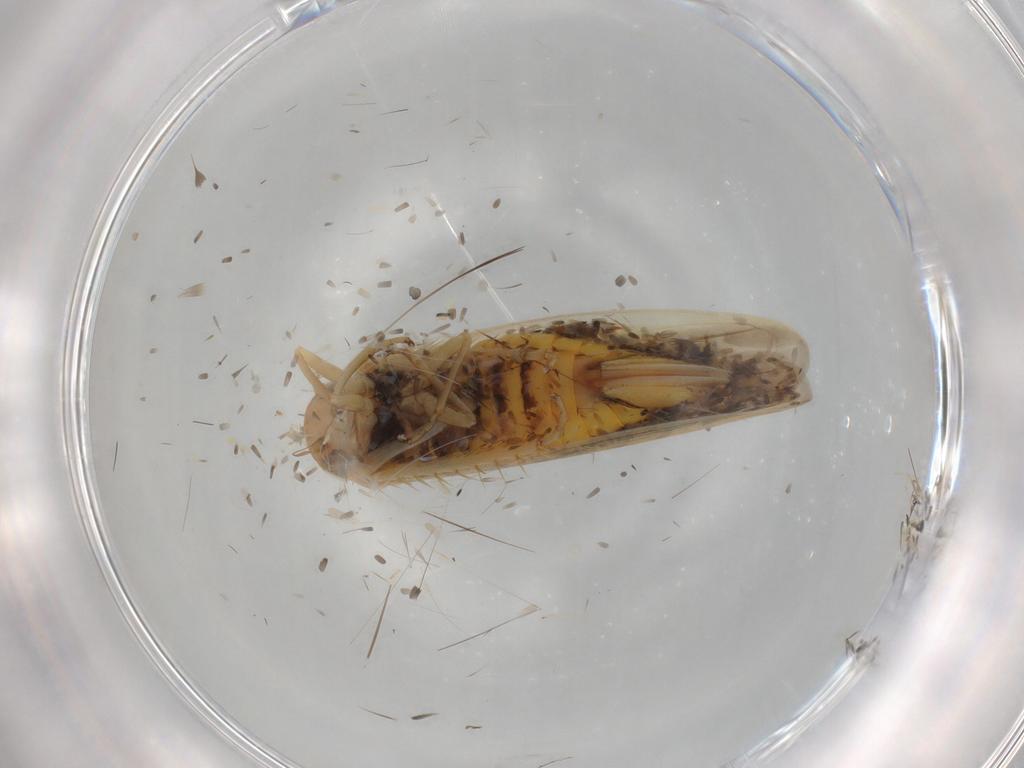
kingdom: Animalia
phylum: Arthropoda
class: Insecta
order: Hemiptera
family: Cicadellidae
